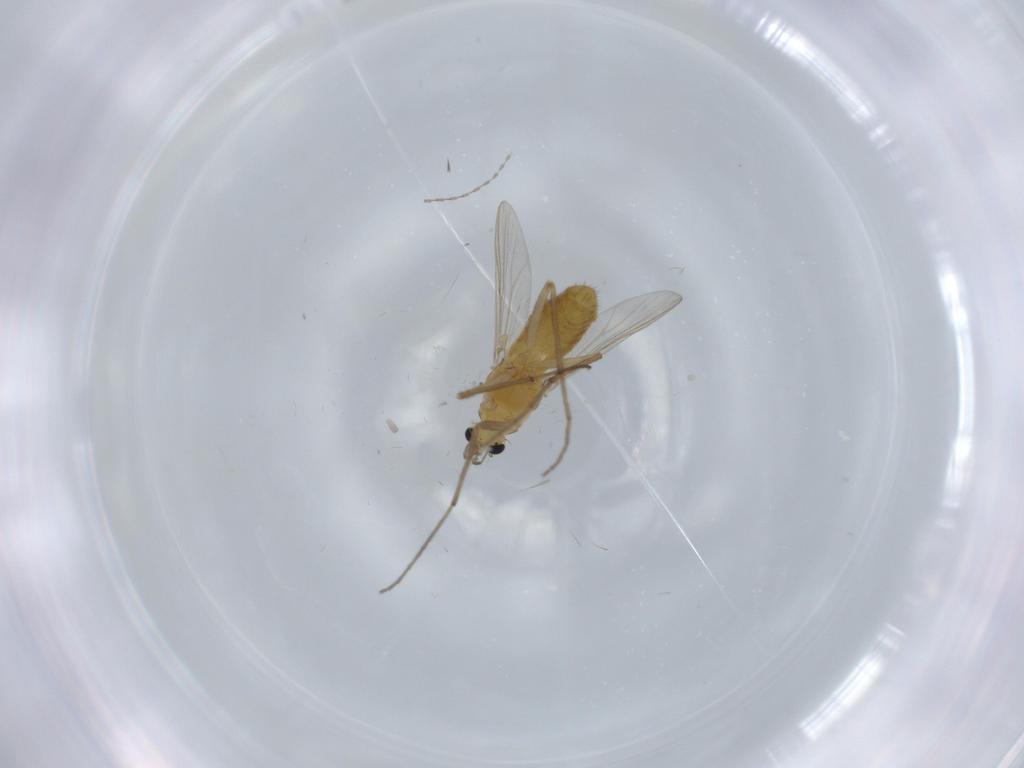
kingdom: Animalia
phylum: Arthropoda
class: Insecta
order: Diptera
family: Chironomidae
